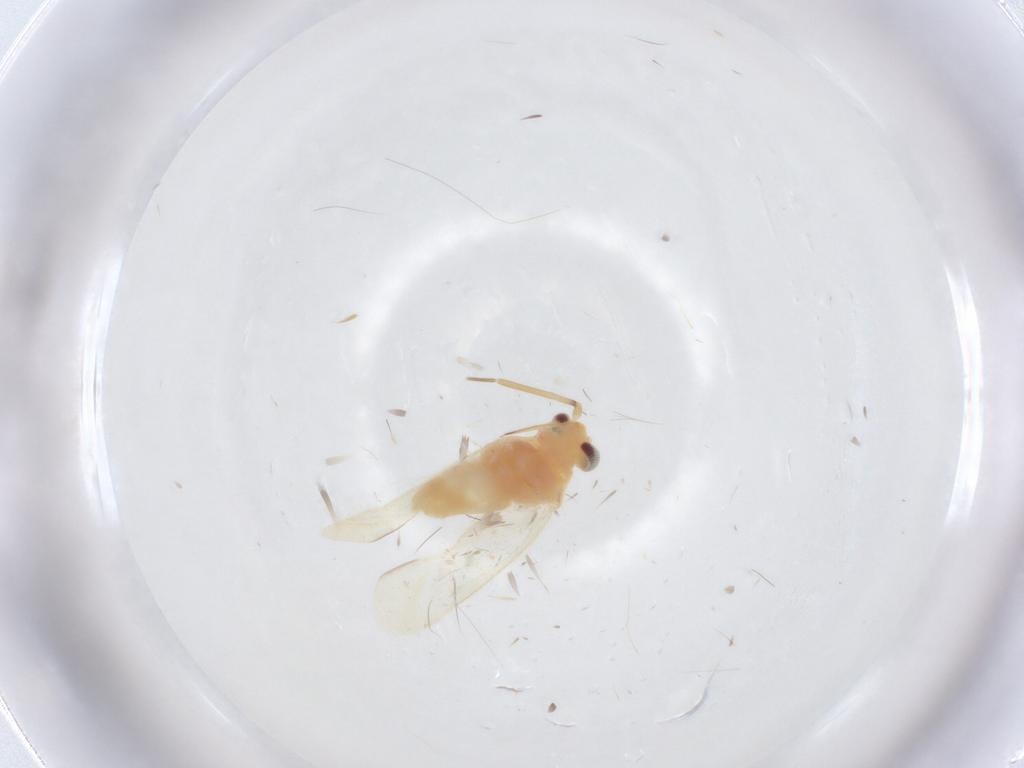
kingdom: Animalia
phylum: Arthropoda
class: Insecta
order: Hemiptera
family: Miridae
